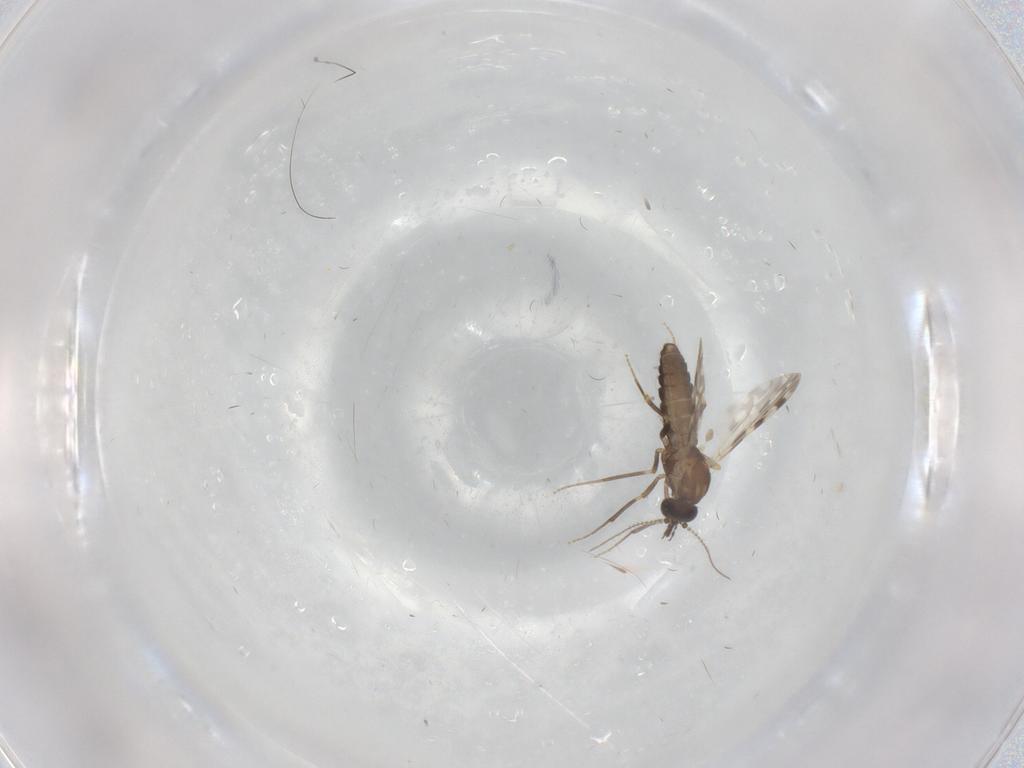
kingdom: Animalia
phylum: Arthropoda
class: Insecta
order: Diptera
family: Ceratopogonidae
